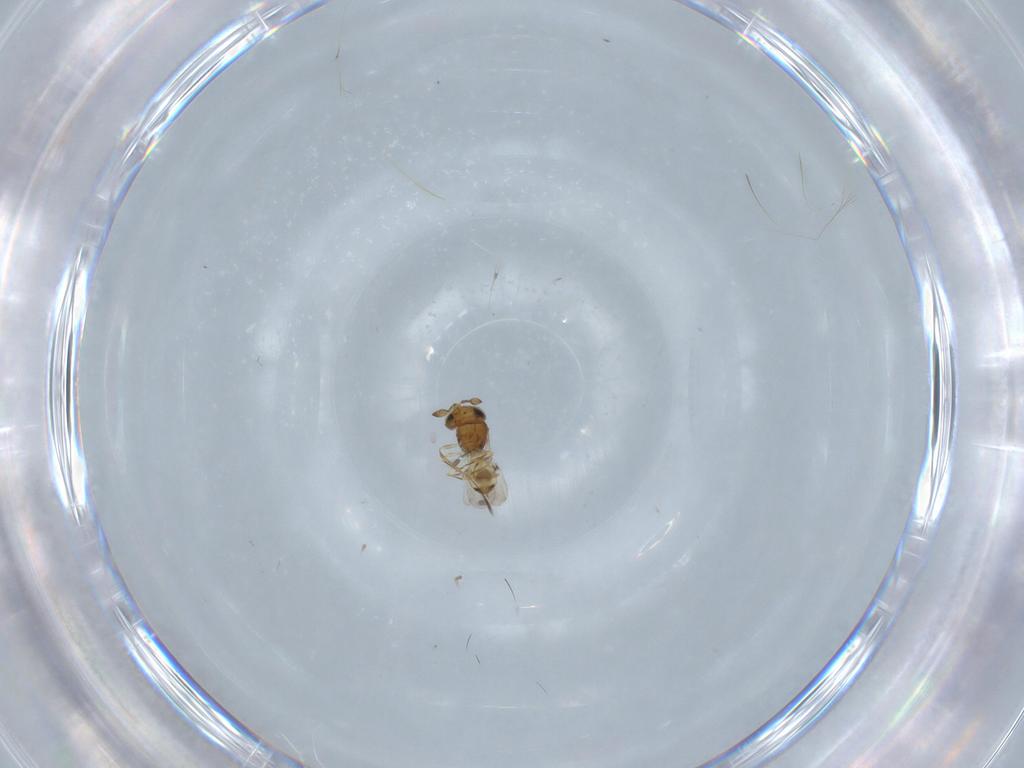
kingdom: Animalia
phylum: Arthropoda
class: Insecta
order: Hymenoptera
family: Scelionidae
